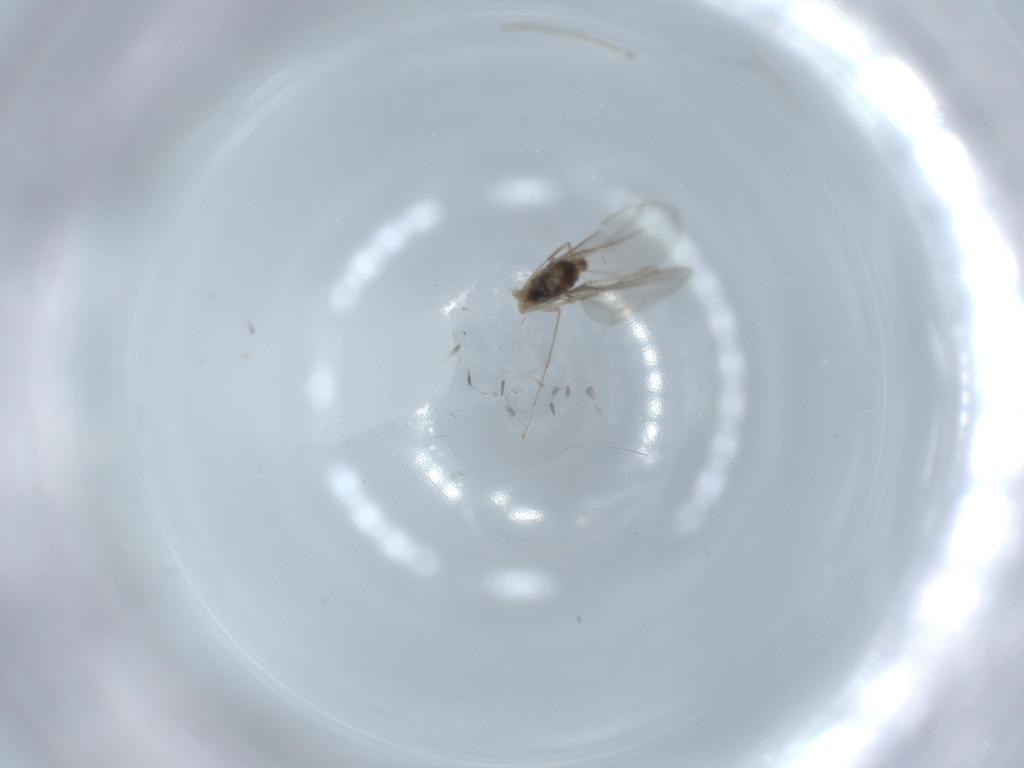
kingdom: Animalia
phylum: Arthropoda
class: Insecta
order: Diptera
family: Cecidomyiidae
